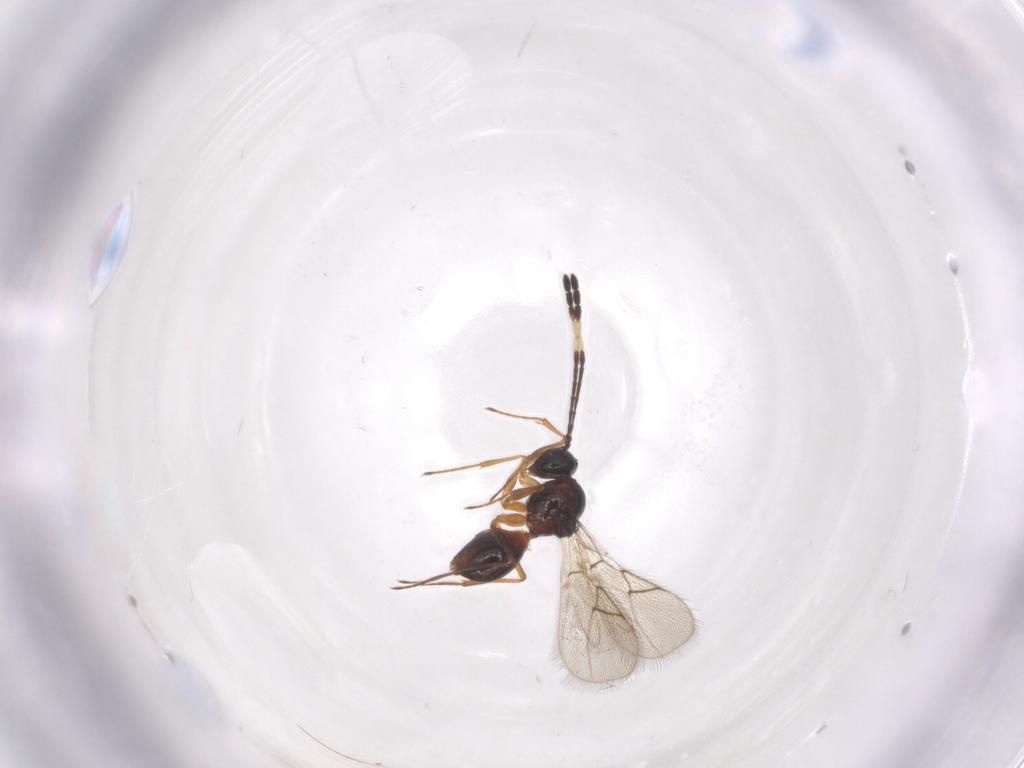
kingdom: Animalia
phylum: Arthropoda
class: Insecta
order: Hymenoptera
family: Figitidae
